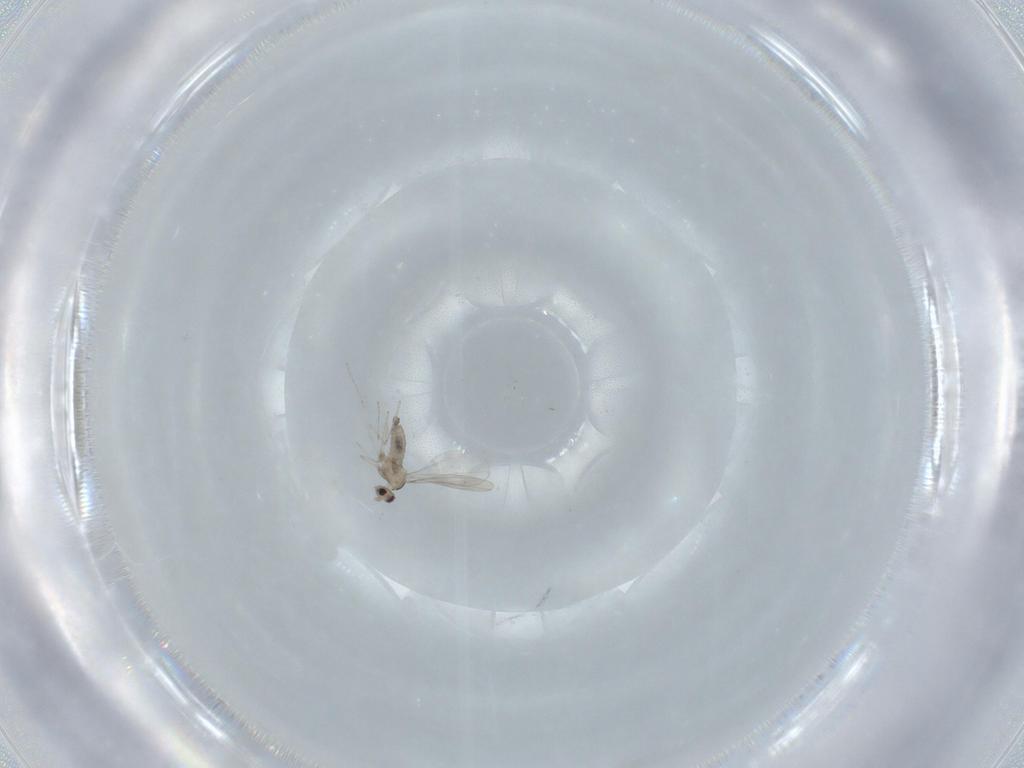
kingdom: Animalia
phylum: Arthropoda
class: Insecta
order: Diptera
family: Cecidomyiidae
